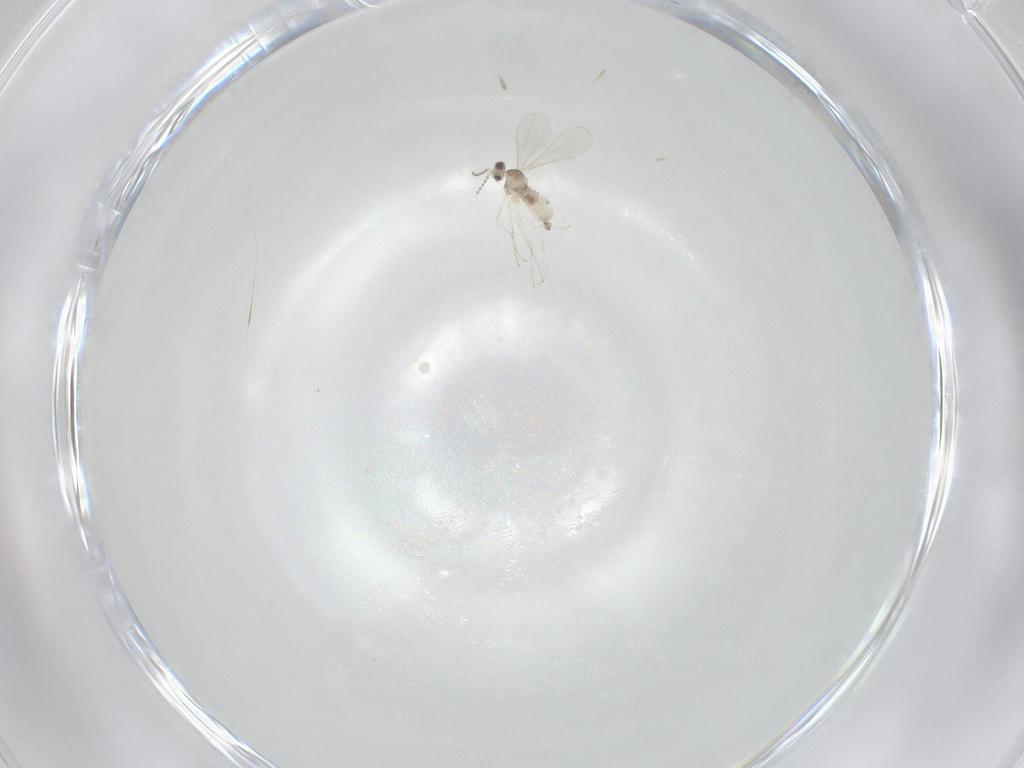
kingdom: Animalia
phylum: Arthropoda
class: Insecta
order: Diptera
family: Cecidomyiidae
